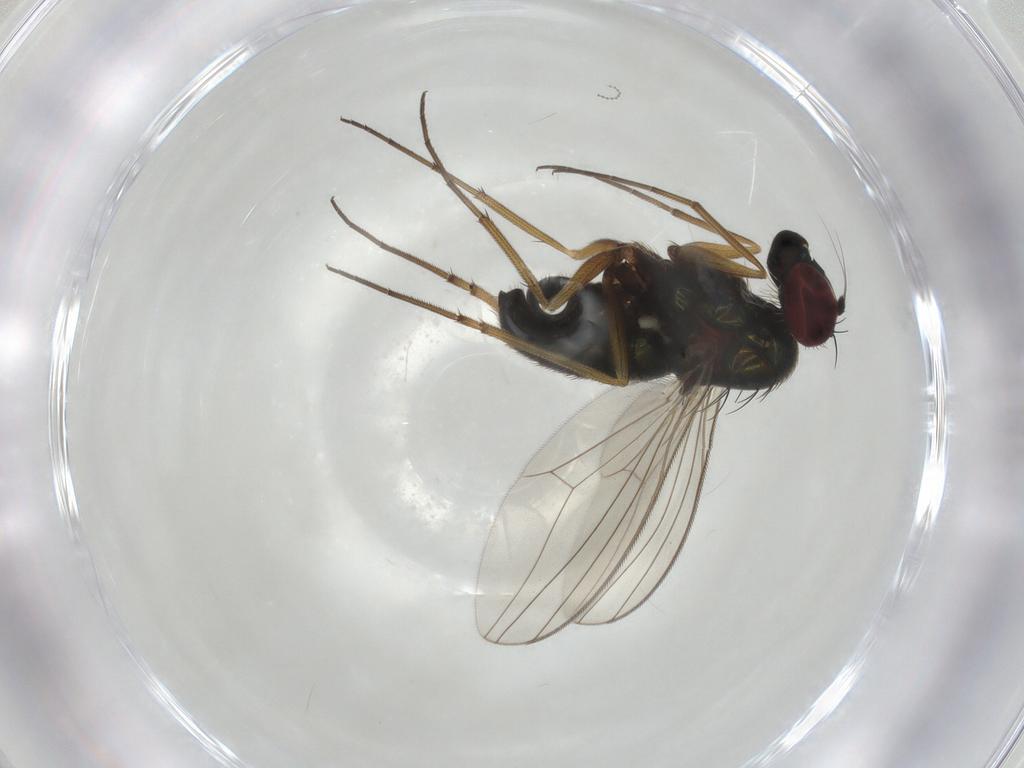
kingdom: Animalia
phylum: Arthropoda
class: Insecta
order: Diptera
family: Dolichopodidae
